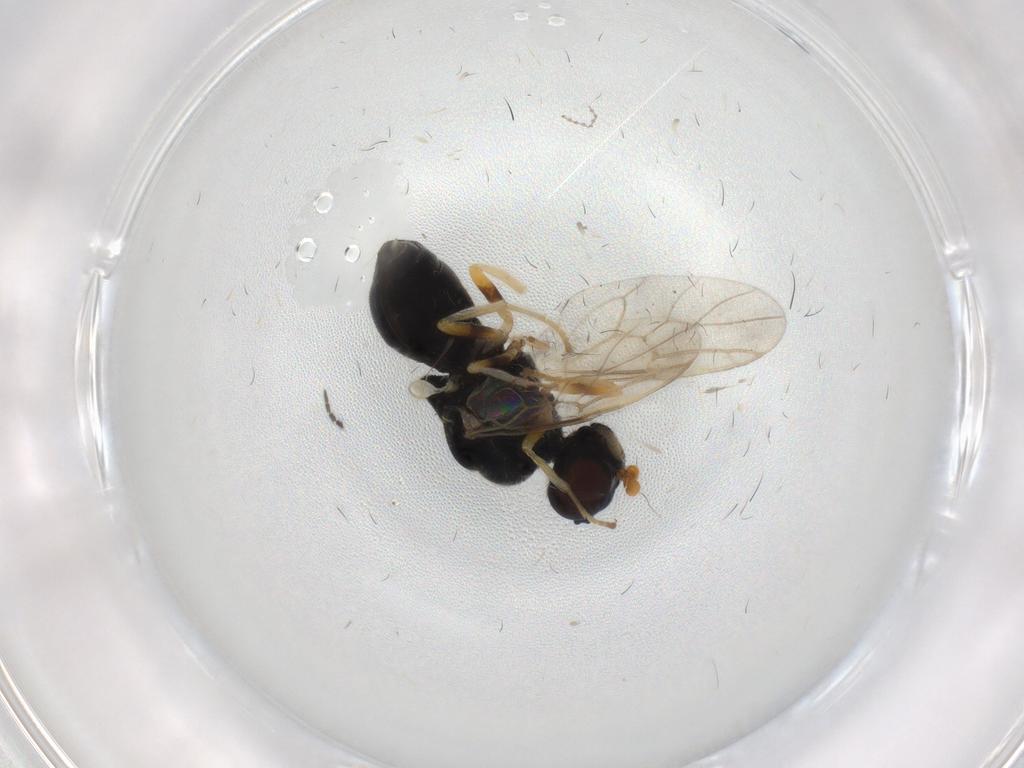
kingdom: Animalia
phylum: Arthropoda
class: Insecta
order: Diptera
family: Stratiomyidae
